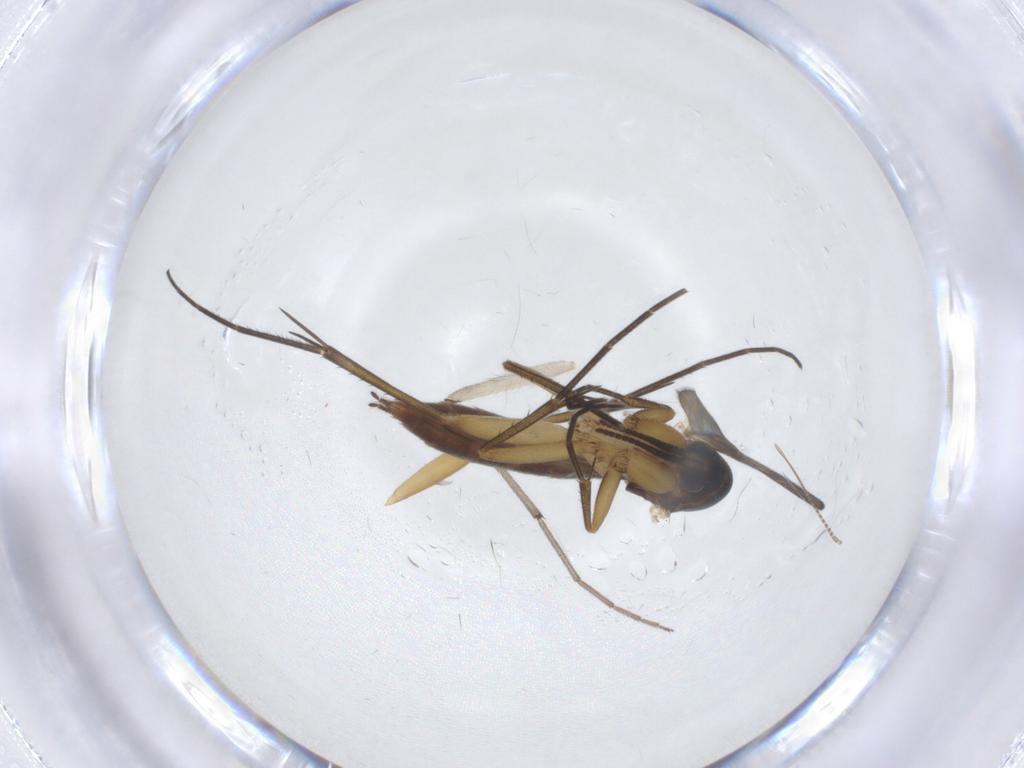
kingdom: Animalia
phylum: Arthropoda
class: Insecta
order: Diptera
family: Chironomidae
